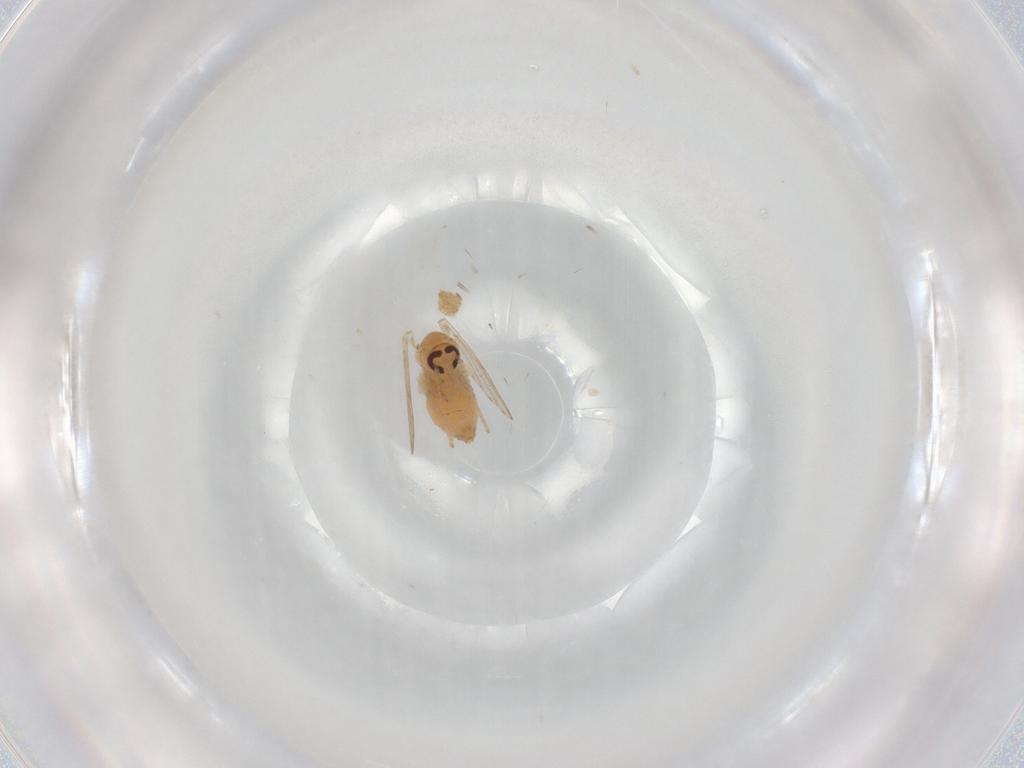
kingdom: Animalia
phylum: Arthropoda
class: Insecta
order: Diptera
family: Psychodidae
